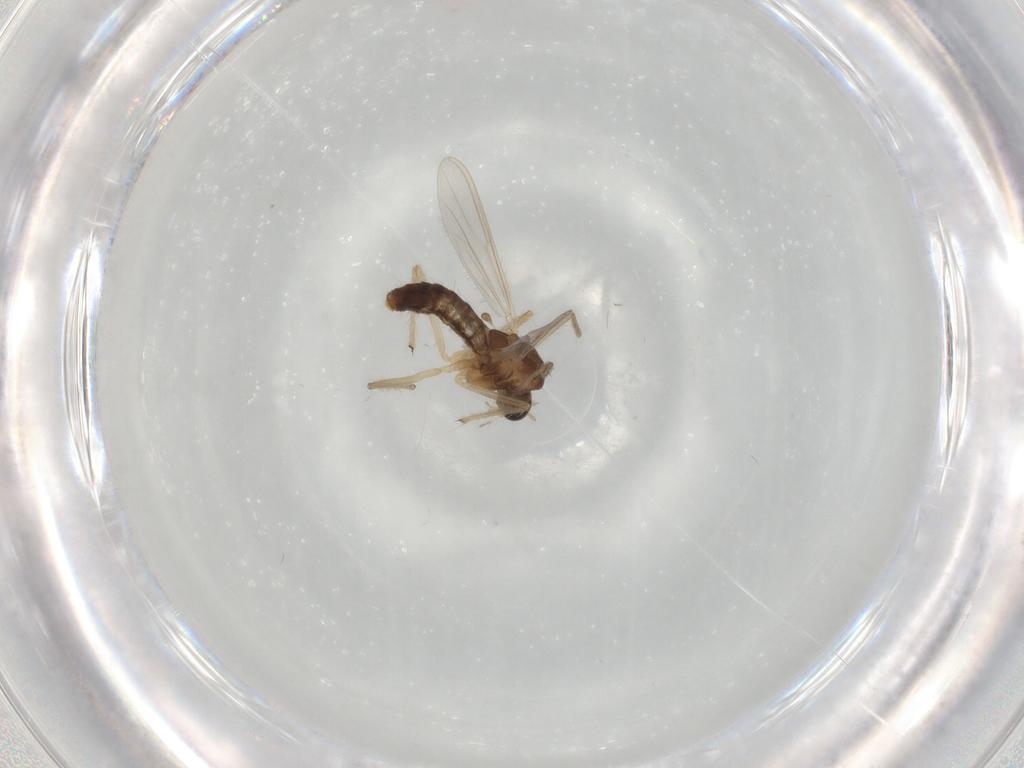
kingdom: Animalia
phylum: Arthropoda
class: Insecta
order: Diptera
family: Chironomidae
